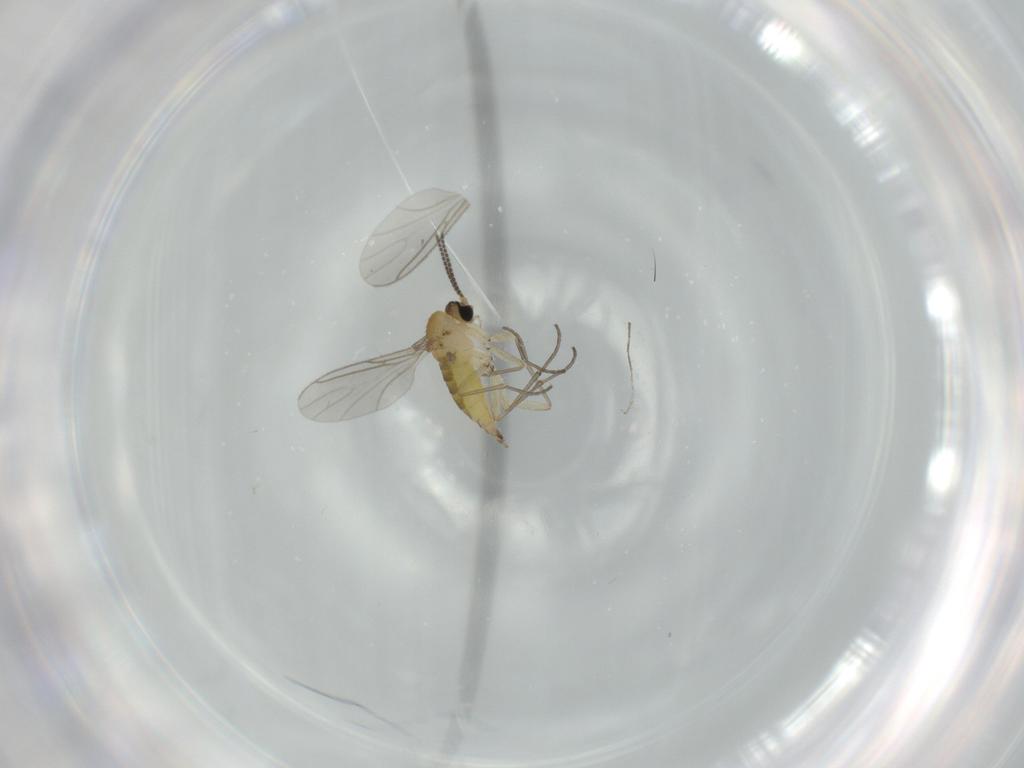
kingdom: Animalia
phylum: Arthropoda
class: Insecta
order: Diptera
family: Sciaridae
